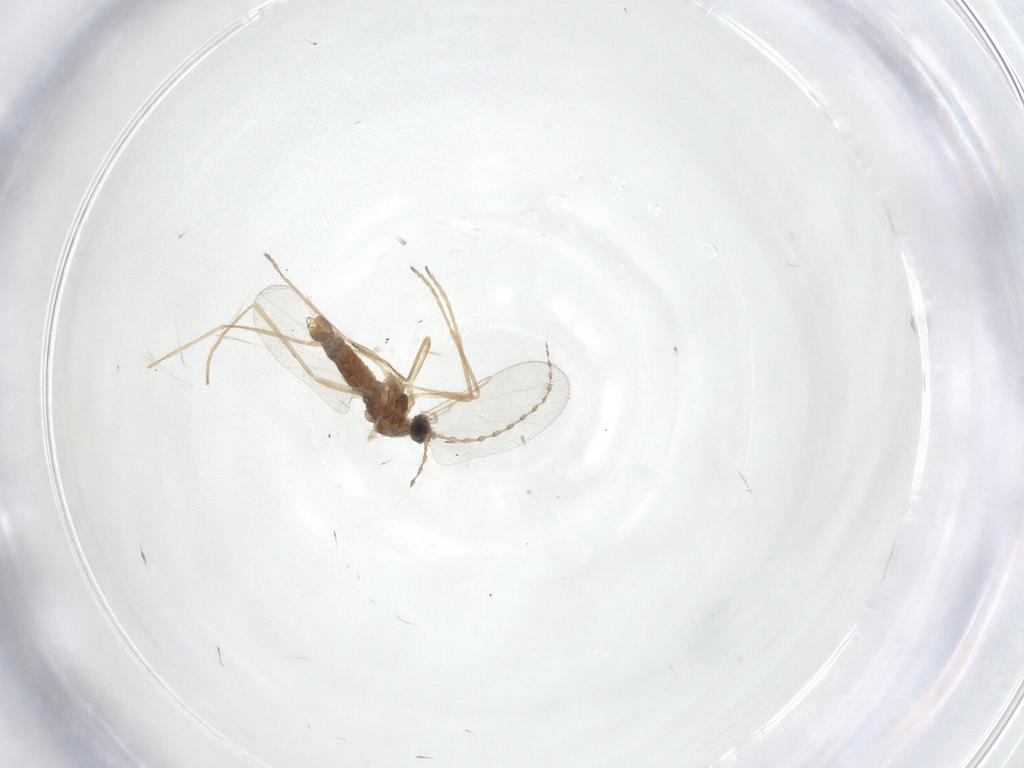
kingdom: Animalia
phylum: Arthropoda
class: Insecta
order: Diptera
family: Cecidomyiidae
